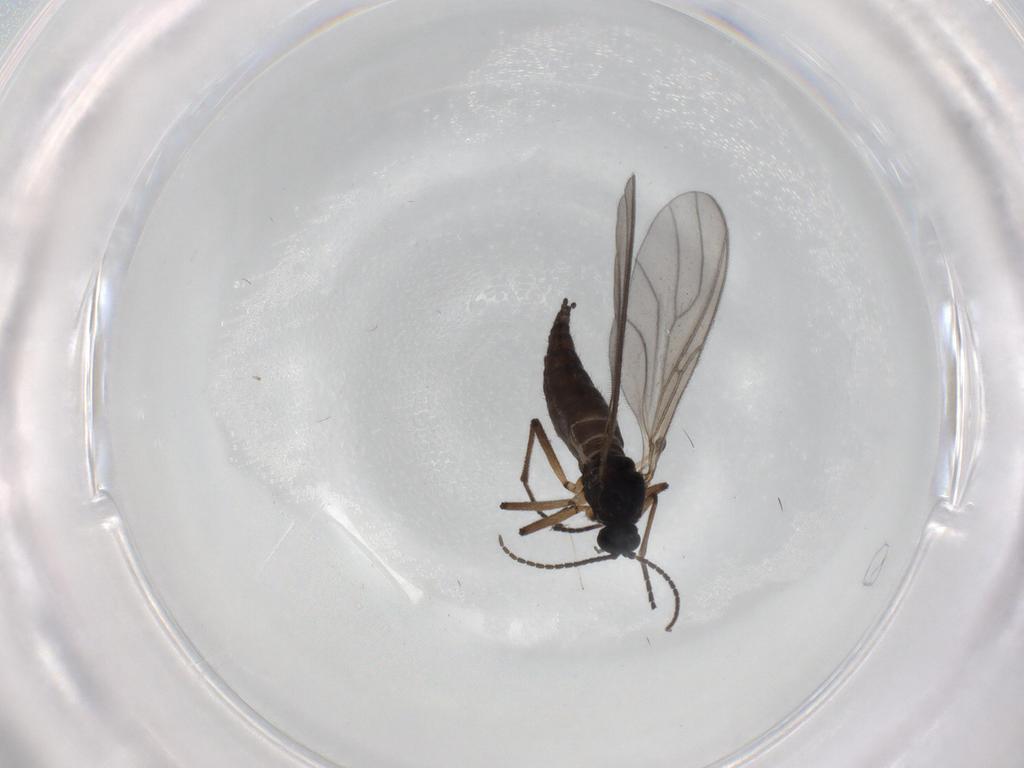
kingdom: Animalia
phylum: Arthropoda
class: Insecta
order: Diptera
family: Sciaridae
